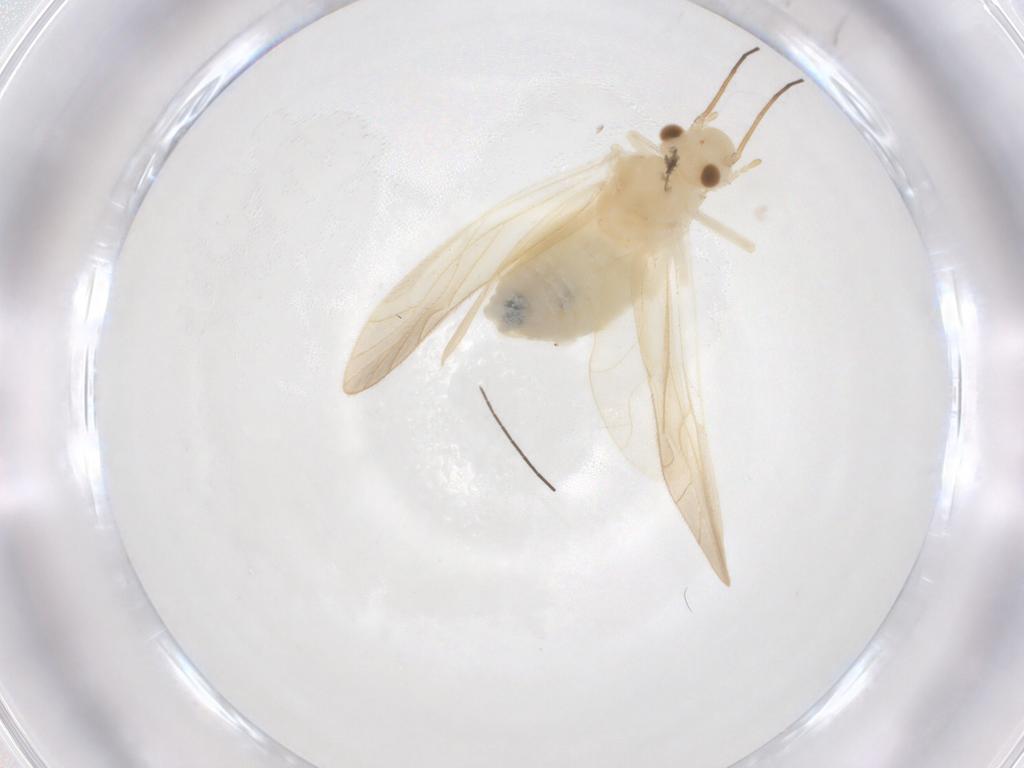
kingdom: Animalia
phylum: Arthropoda
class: Insecta
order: Psocodea
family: Caeciliusidae
